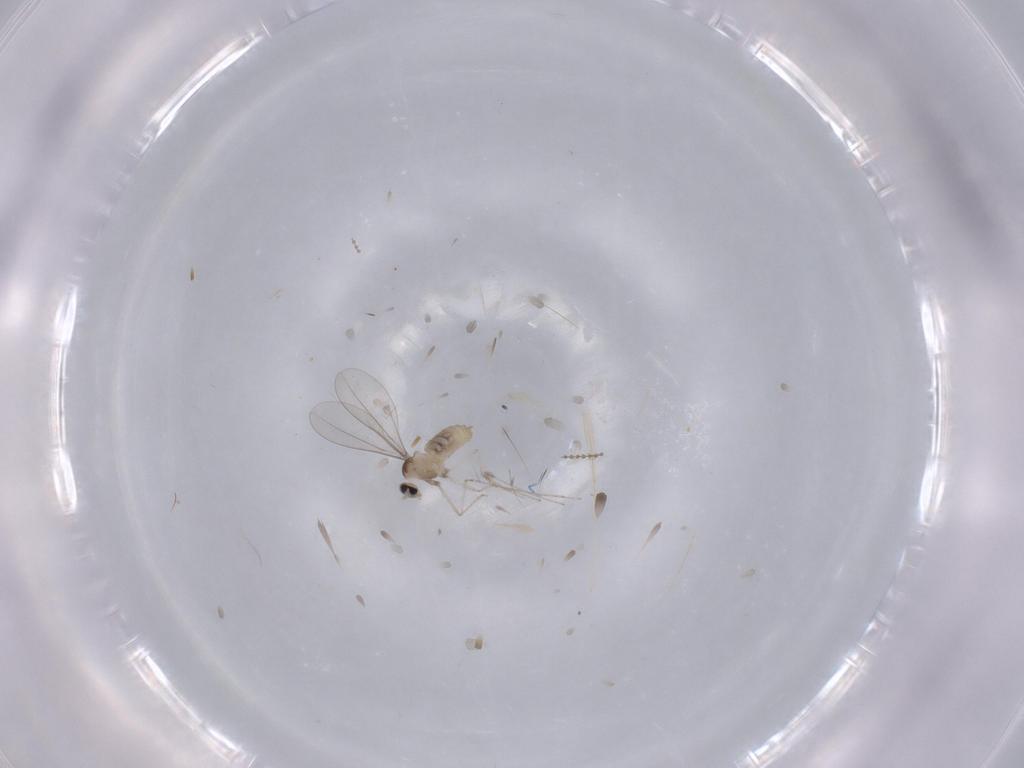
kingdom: Animalia
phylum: Arthropoda
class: Insecta
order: Diptera
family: Cecidomyiidae
